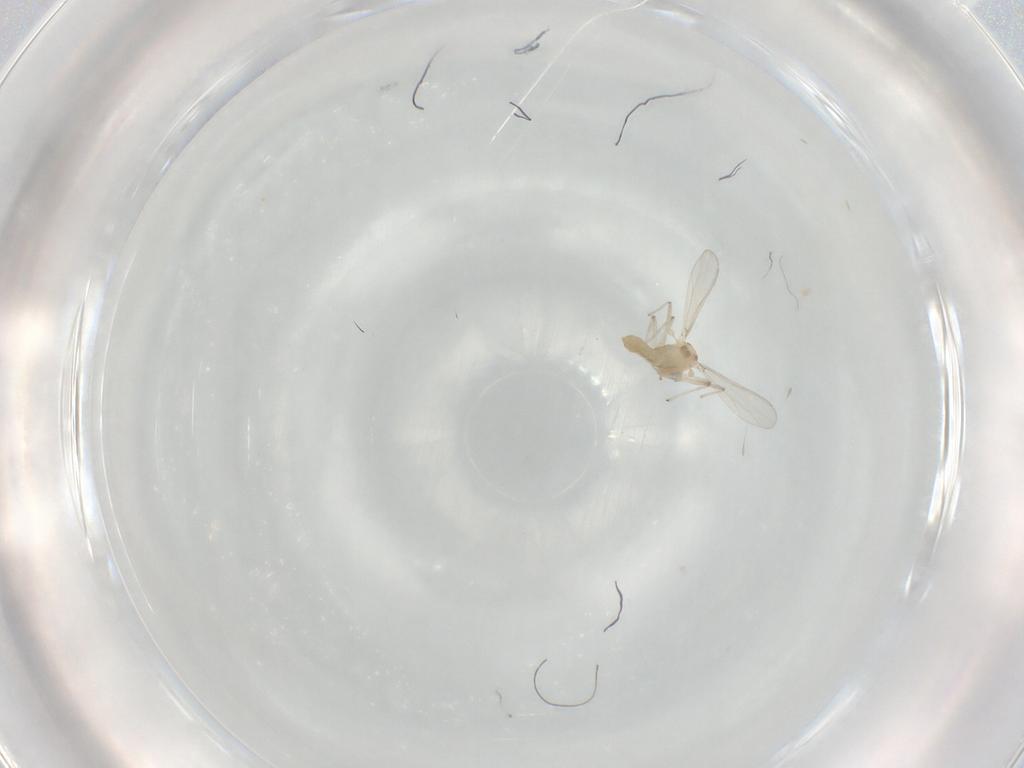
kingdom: Animalia
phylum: Arthropoda
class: Insecta
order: Diptera
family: Chironomidae
